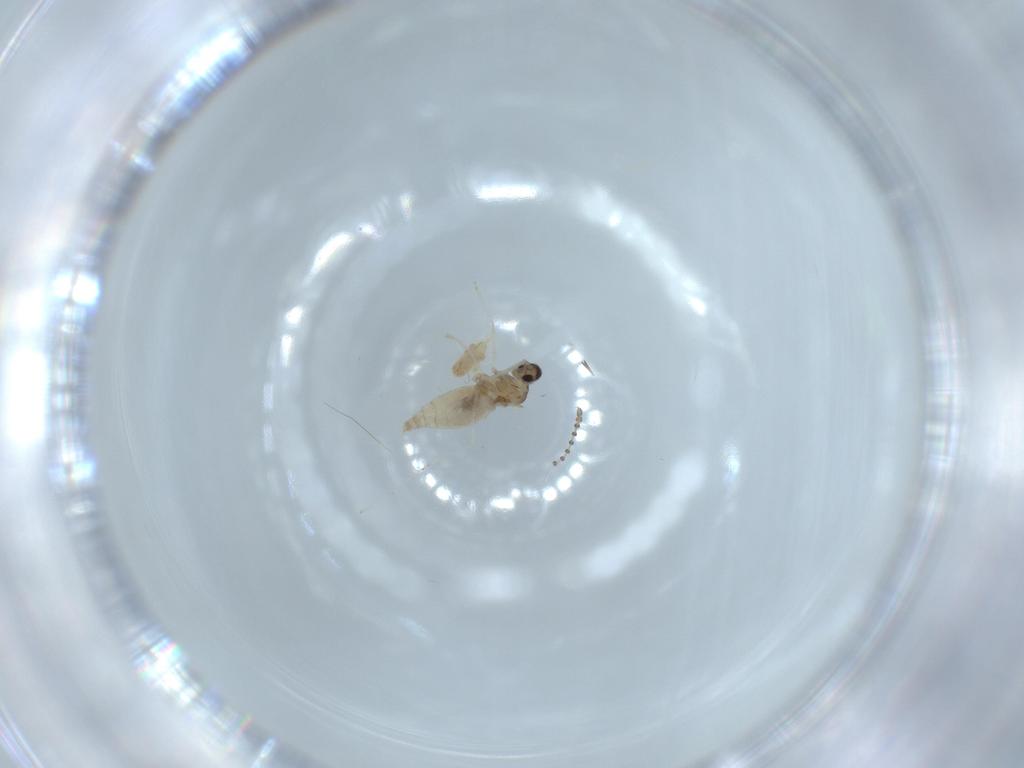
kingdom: Animalia
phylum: Arthropoda
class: Arachnida
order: Trombidiformes
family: Eupodidae
